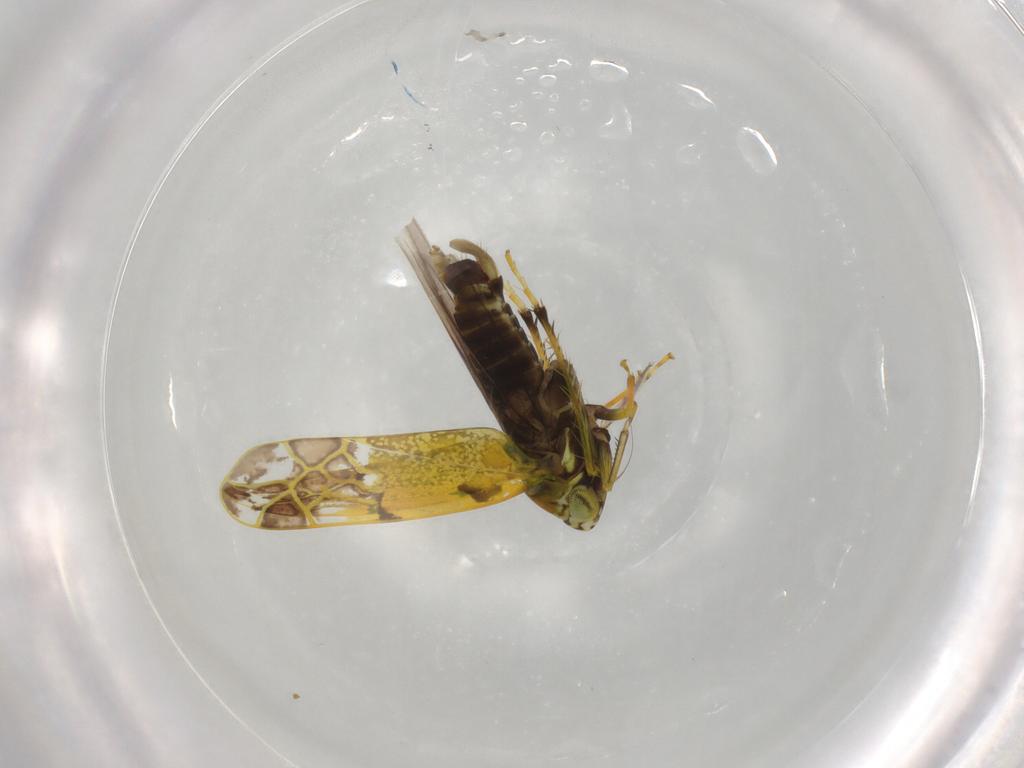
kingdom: Animalia
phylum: Arthropoda
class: Insecta
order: Hemiptera
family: Cicadellidae
